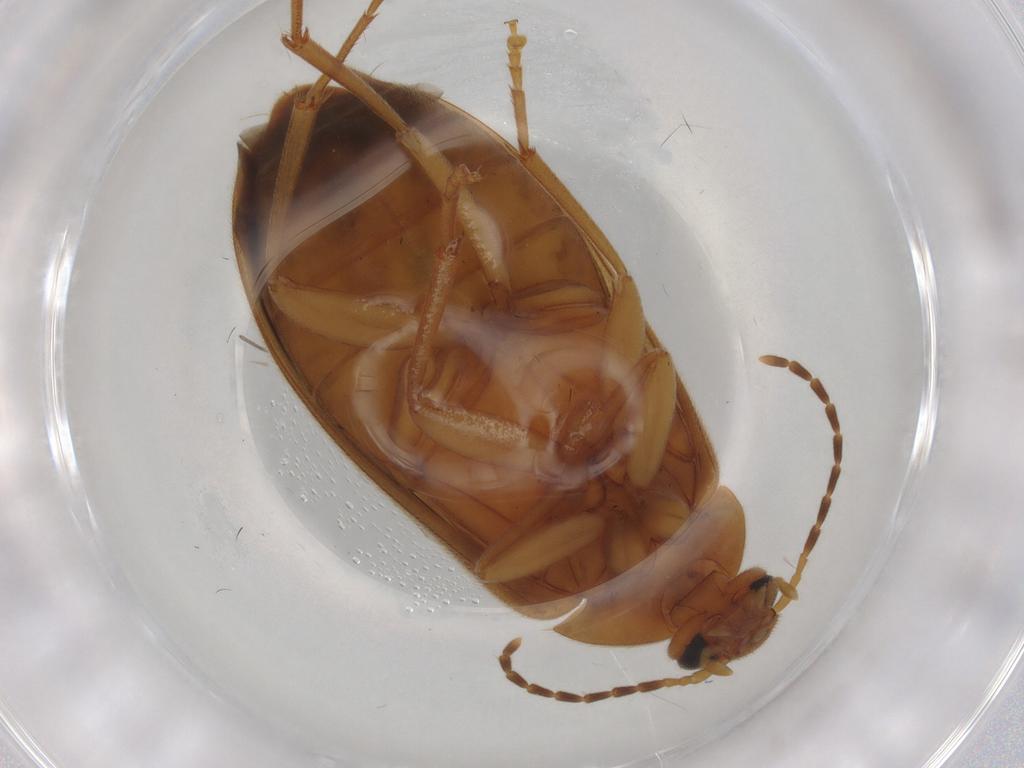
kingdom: Animalia
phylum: Arthropoda
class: Insecta
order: Coleoptera
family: Scraptiidae
